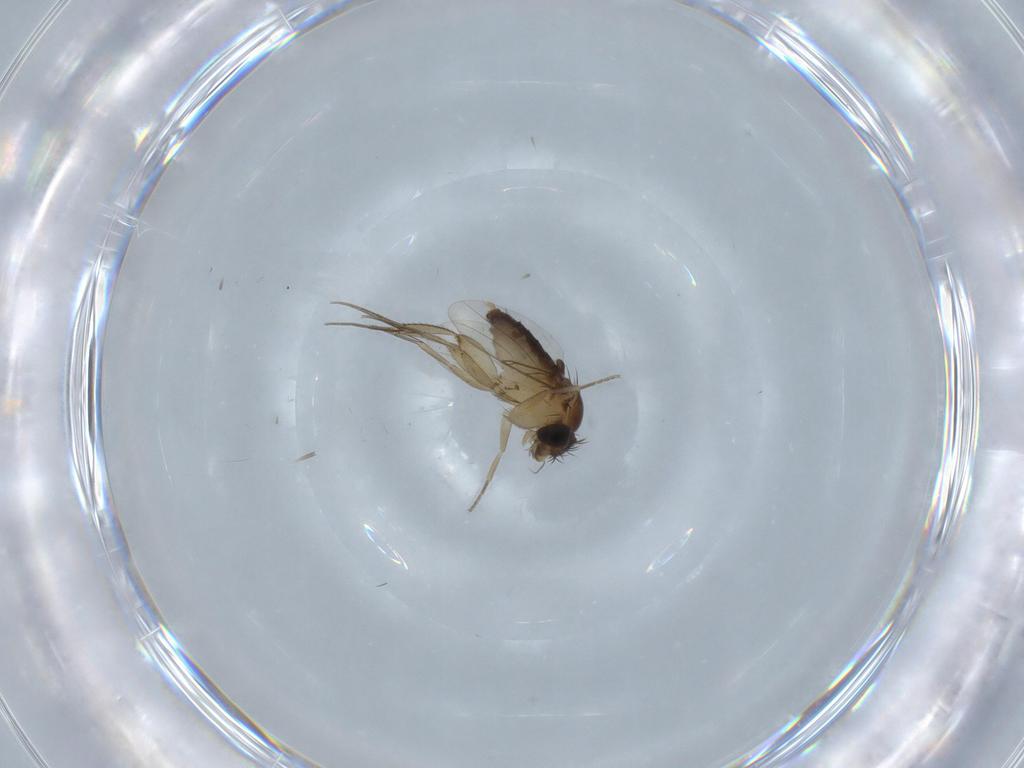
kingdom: Animalia
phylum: Arthropoda
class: Insecta
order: Diptera
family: Phoridae
